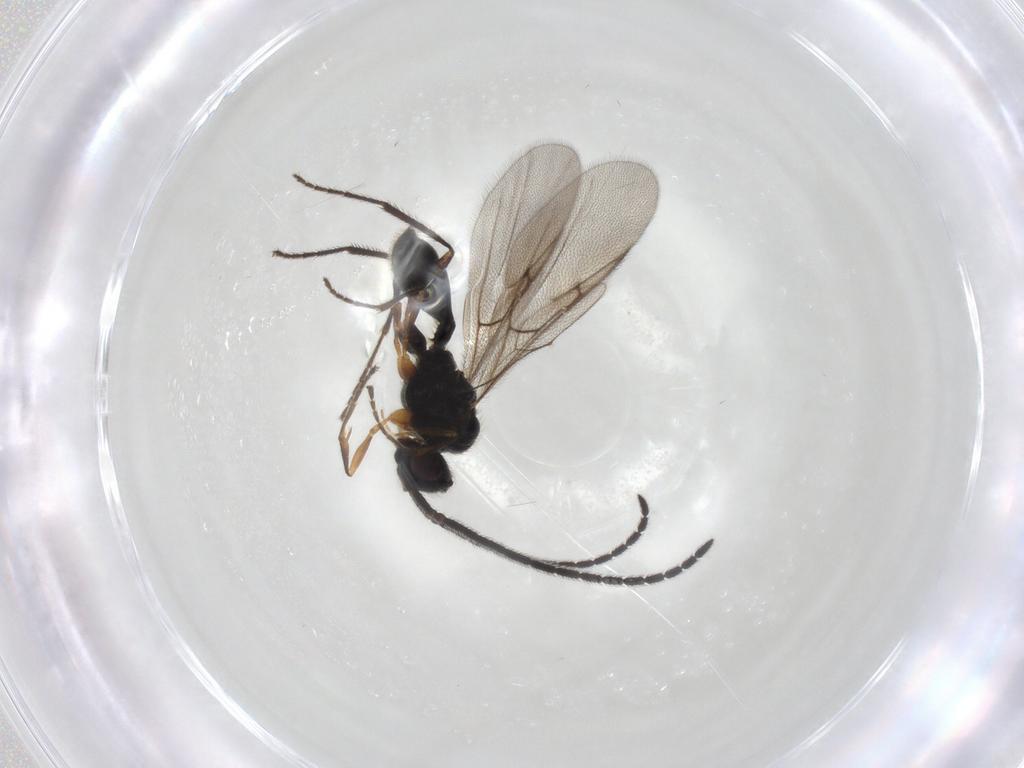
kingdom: Animalia
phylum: Arthropoda
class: Insecta
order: Hymenoptera
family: Diapriidae
